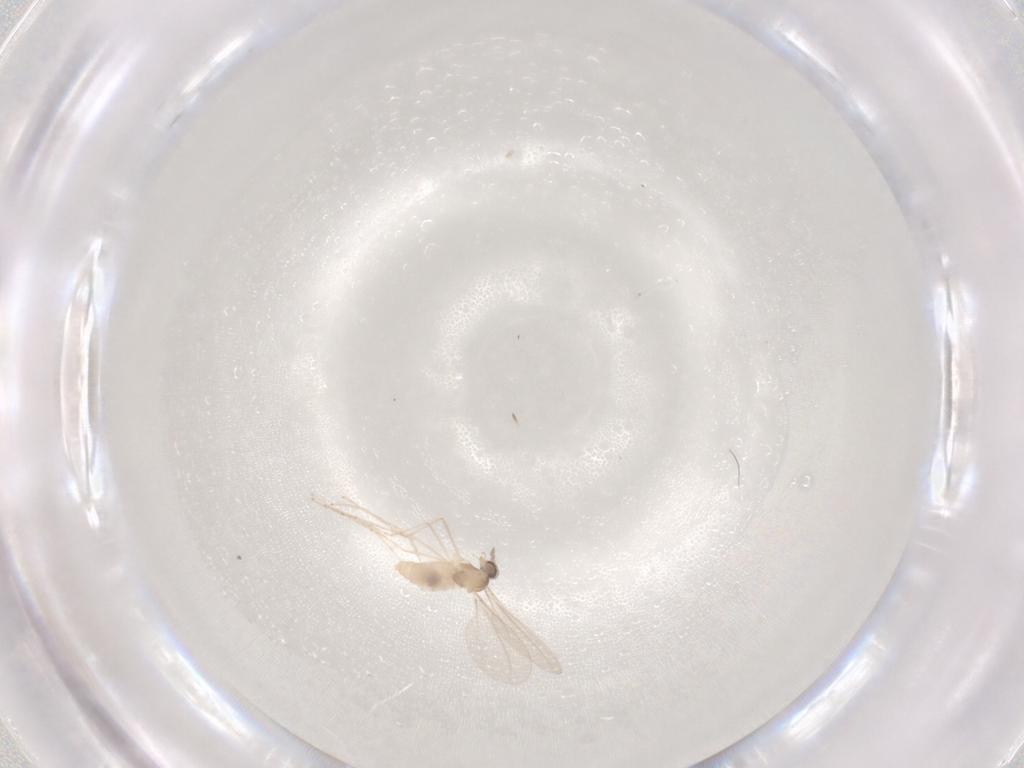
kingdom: Animalia
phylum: Arthropoda
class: Insecta
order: Diptera
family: Cecidomyiidae
